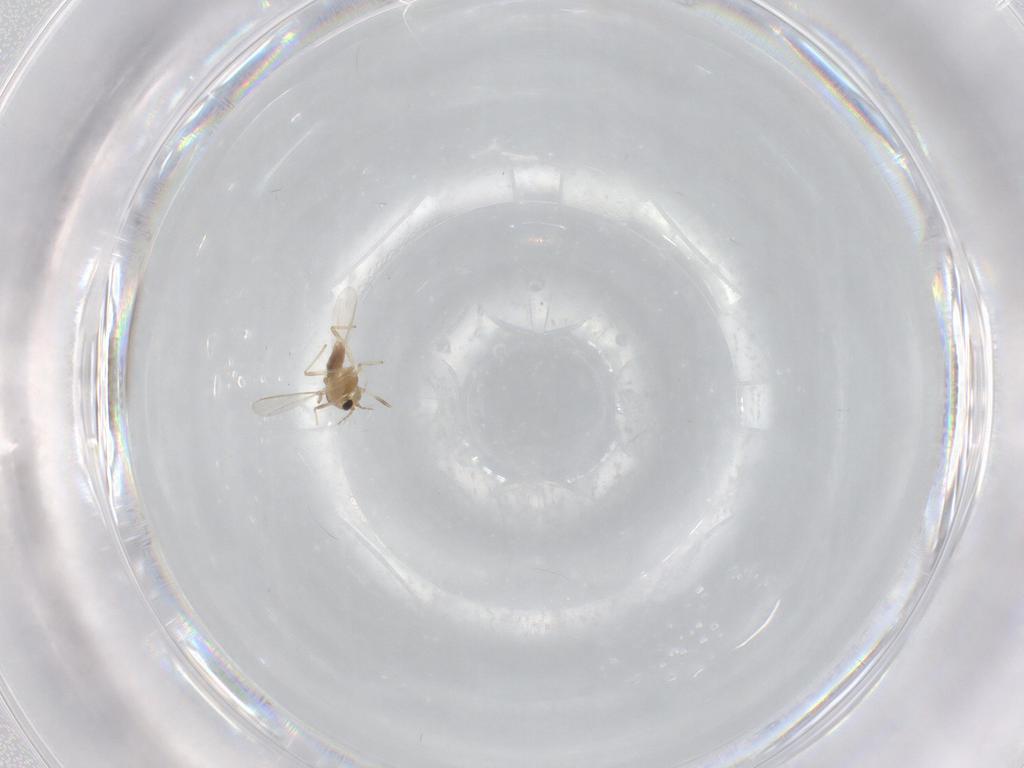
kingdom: Animalia
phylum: Arthropoda
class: Insecta
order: Diptera
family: Chironomidae
